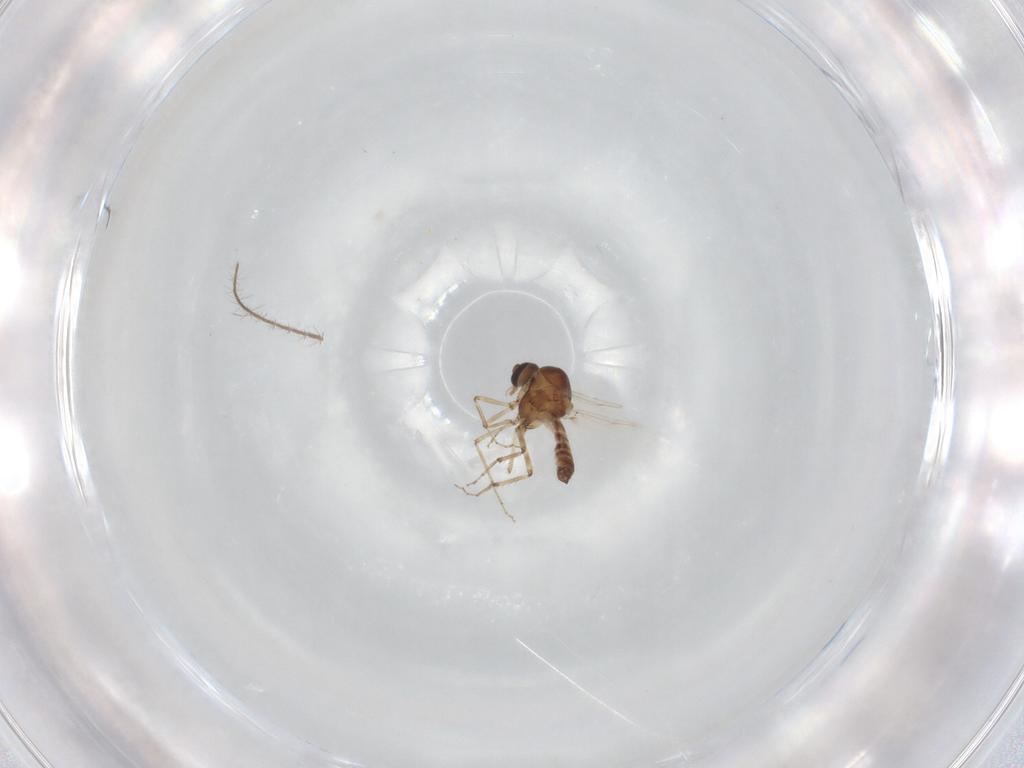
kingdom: Animalia
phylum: Arthropoda
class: Insecta
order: Diptera
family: Ceratopogonidae
